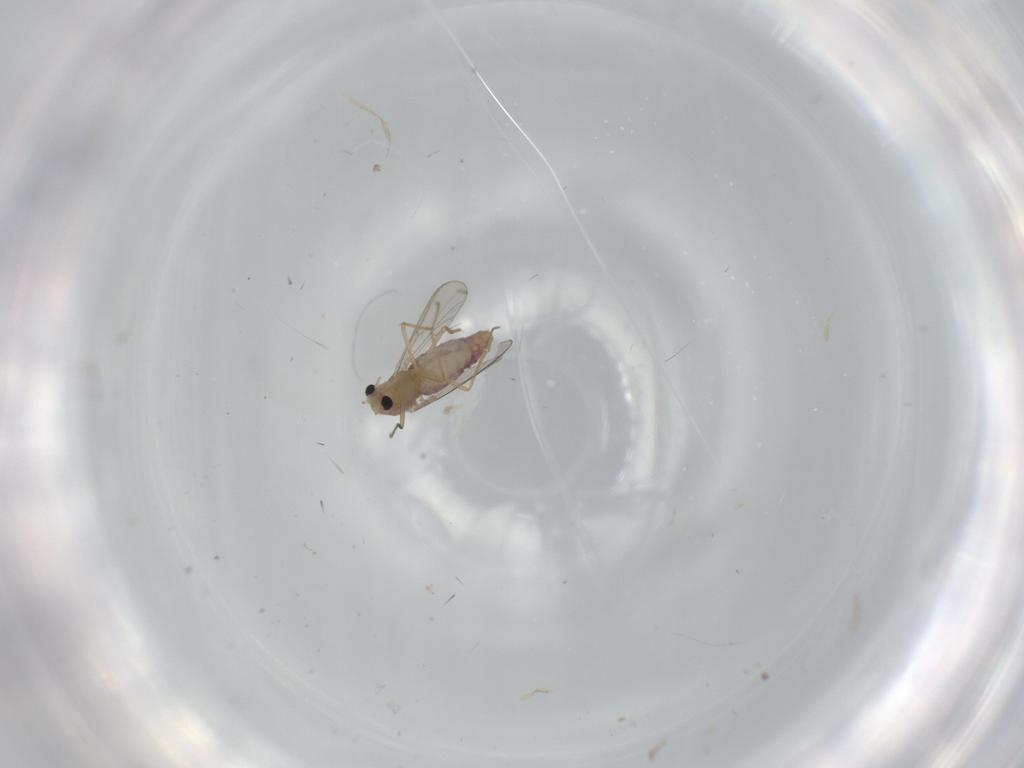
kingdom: Animalia
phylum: Arthropoda
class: Insecta
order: Diptera
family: Chironomidae
